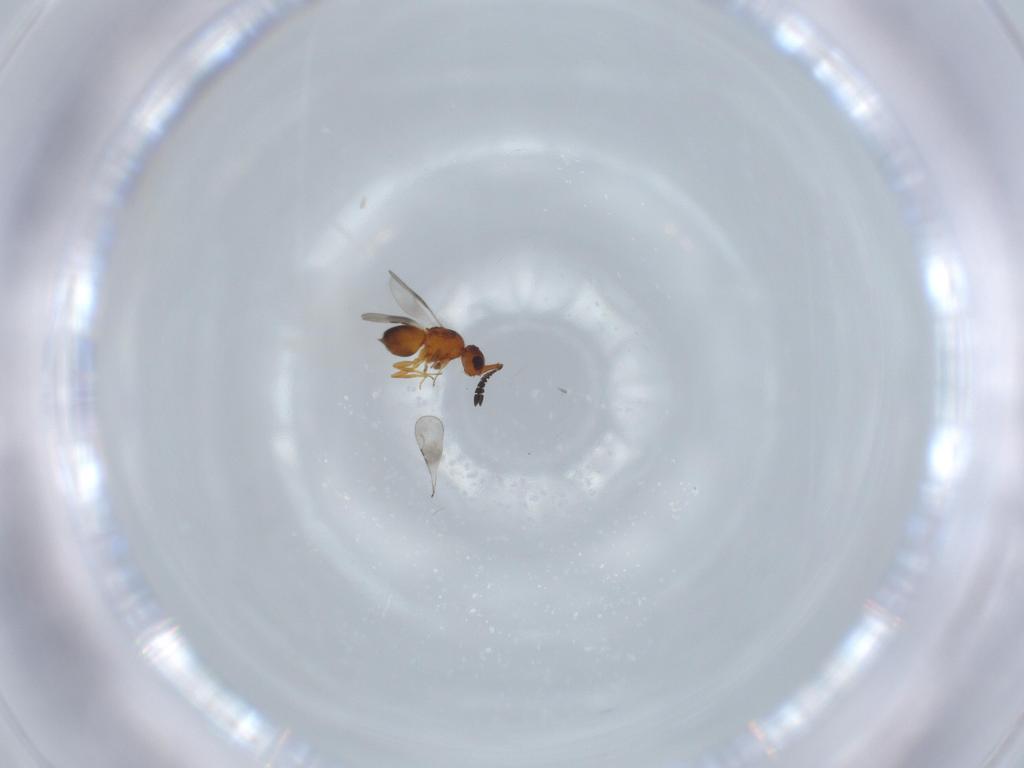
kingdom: Animalia
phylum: Arthropoda
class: Insecta
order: Hymenoptera
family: Ceraphronidae
